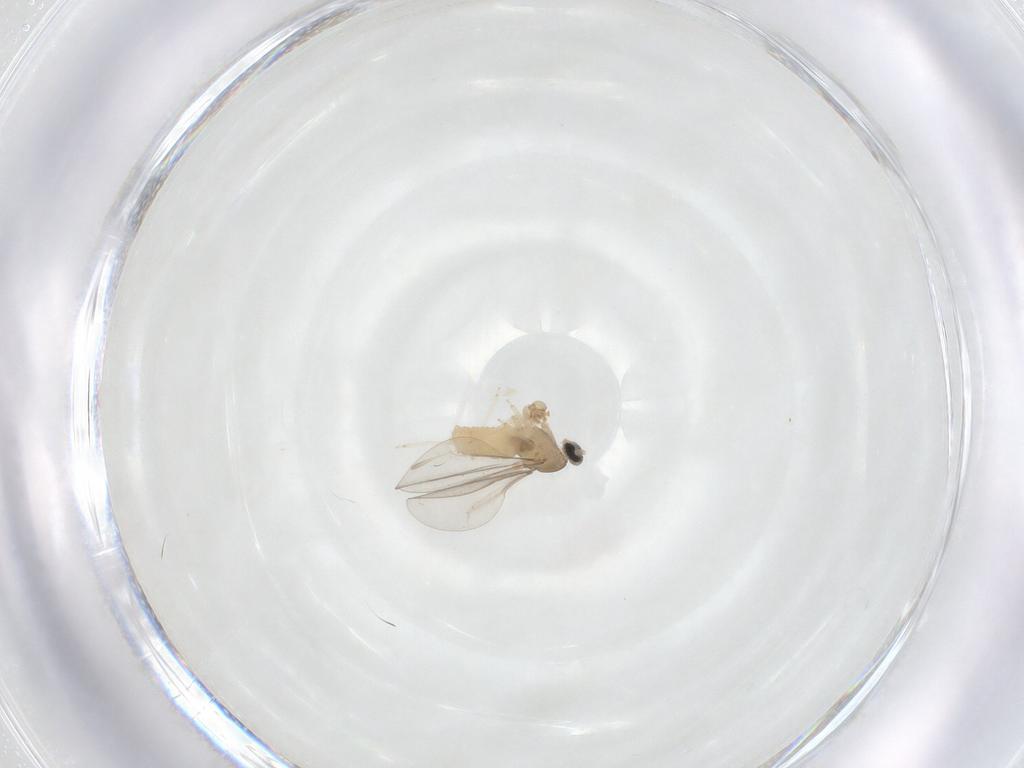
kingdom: Animalia
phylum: Arthropoda
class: Insecta
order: Diptera
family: Cecidomyiidae
